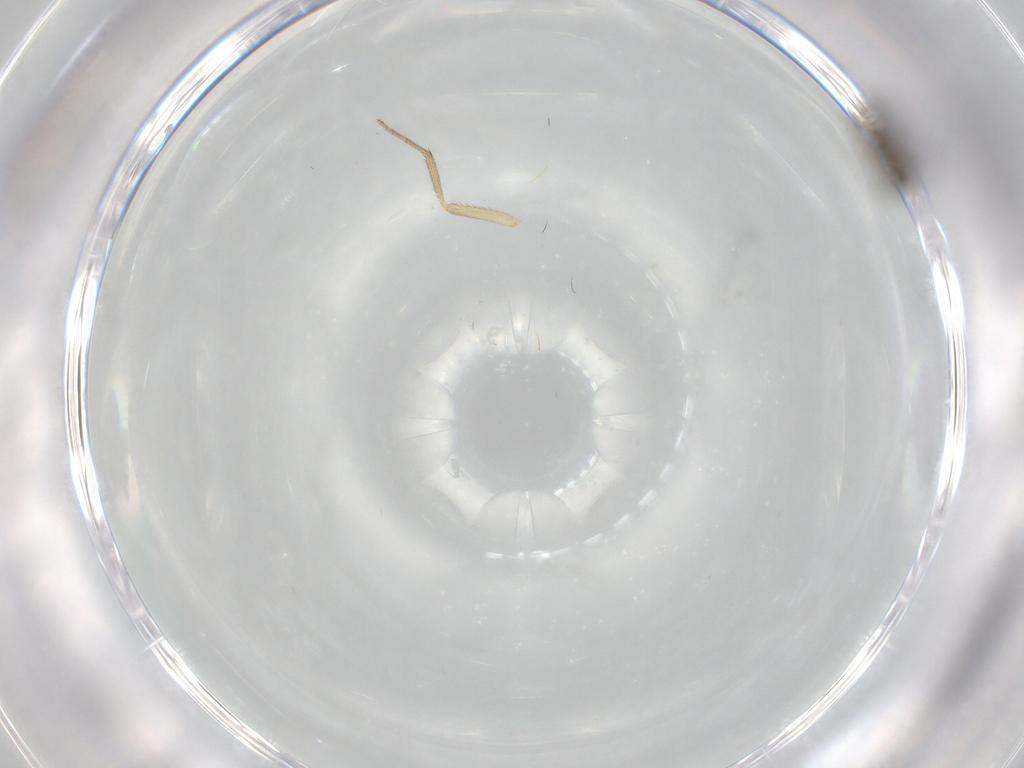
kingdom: Animalia
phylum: Arthropoda
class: Insecta
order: Diptera
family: Chironomidae
